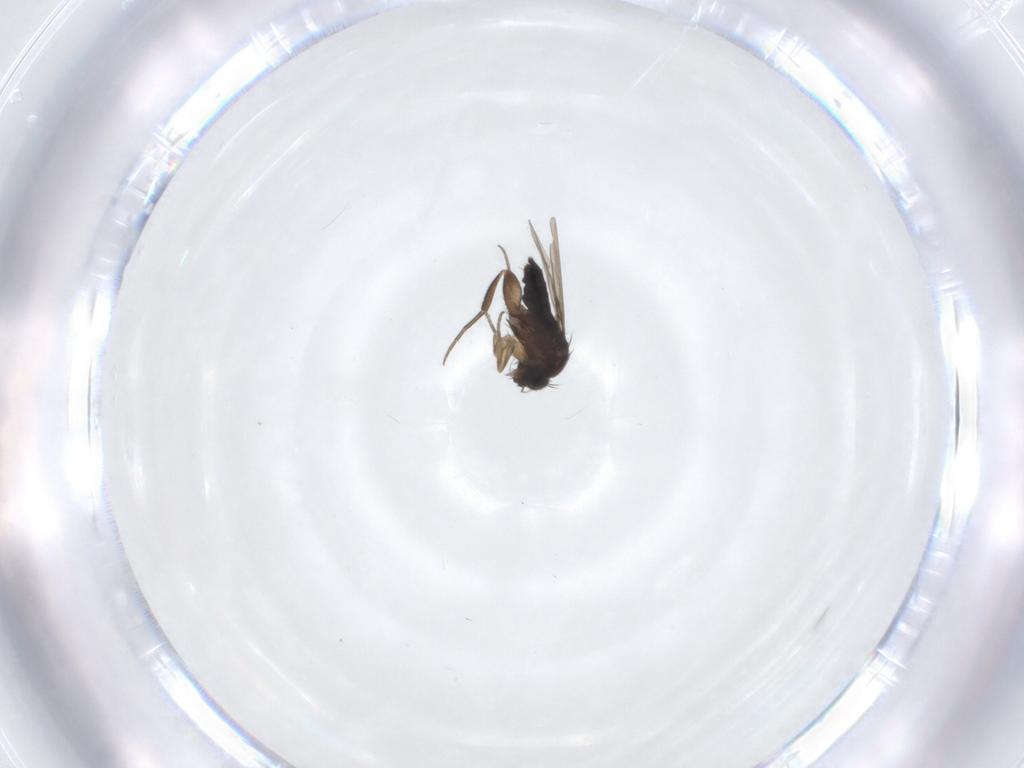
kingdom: Animalia
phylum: Arthropoda
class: Insecta
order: Diptera
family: Phoridae
